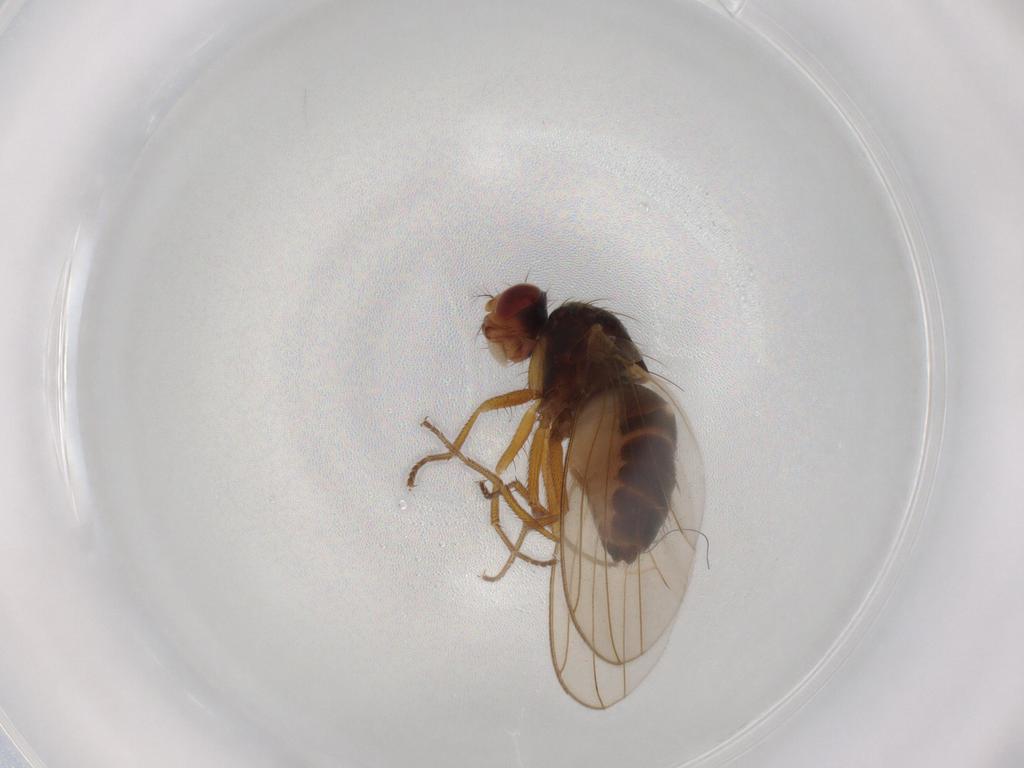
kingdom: Animalia
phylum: Arthropoda
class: Insecta
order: Diptera
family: Drosophilidae
